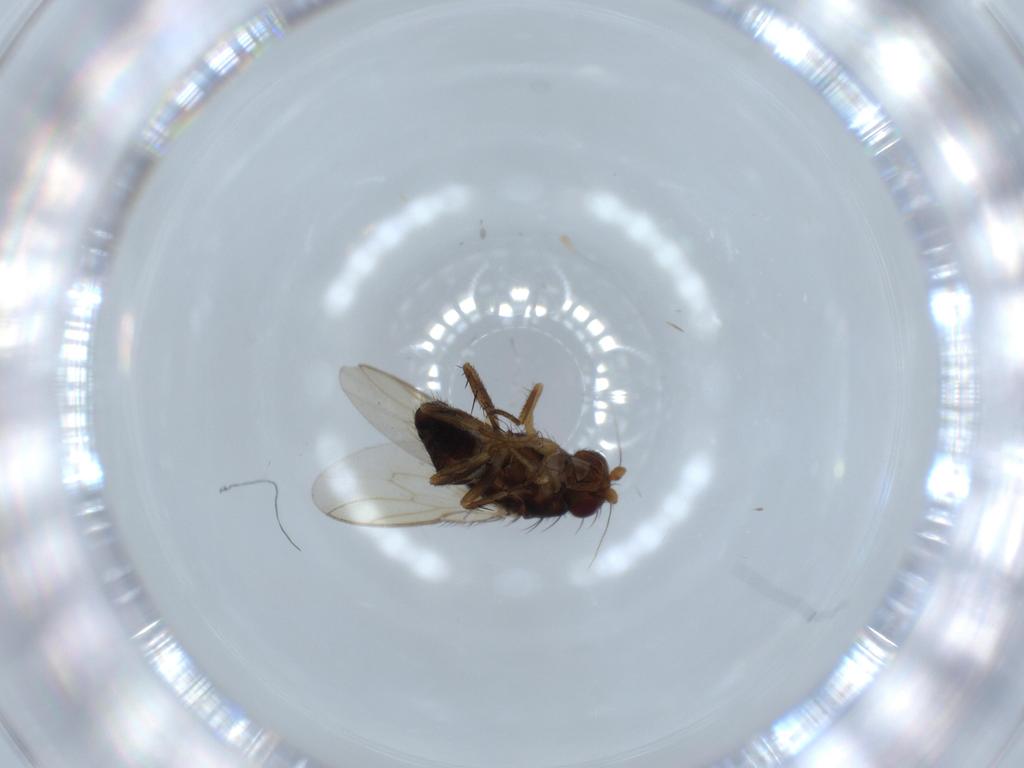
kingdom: Animalia
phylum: Arthropoda
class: Insecta
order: Diptera
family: Sphaeroceridae
